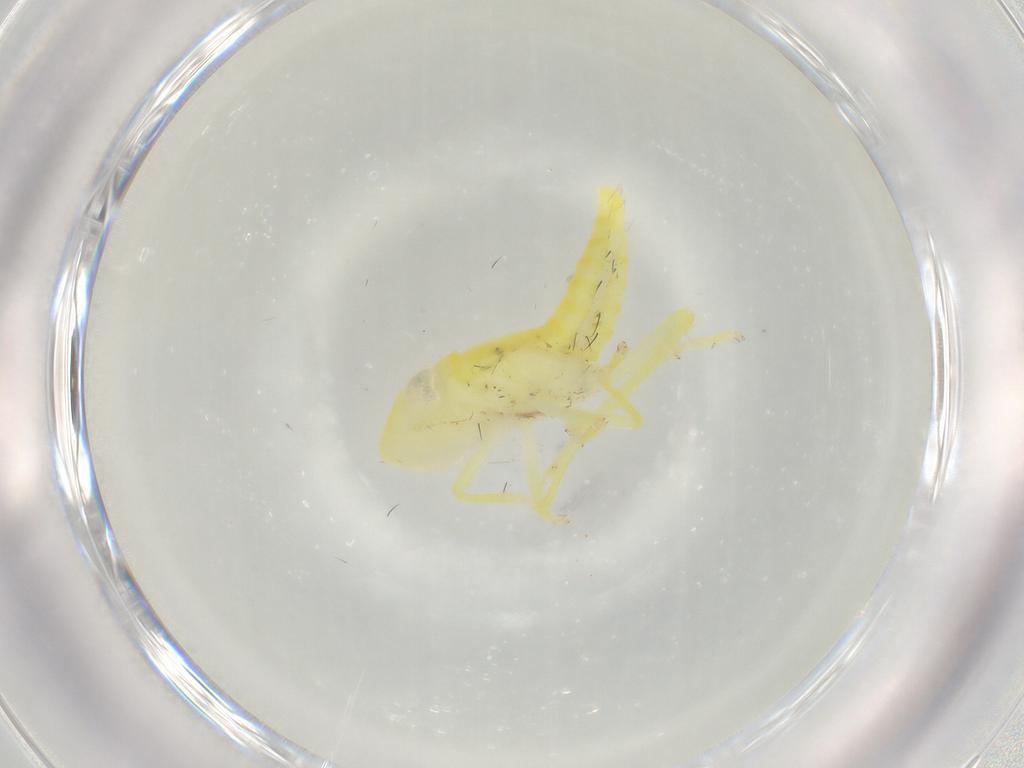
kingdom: Animalia
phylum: Arthropoda
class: Insecta
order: Hemiptera
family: Cicadellidae
